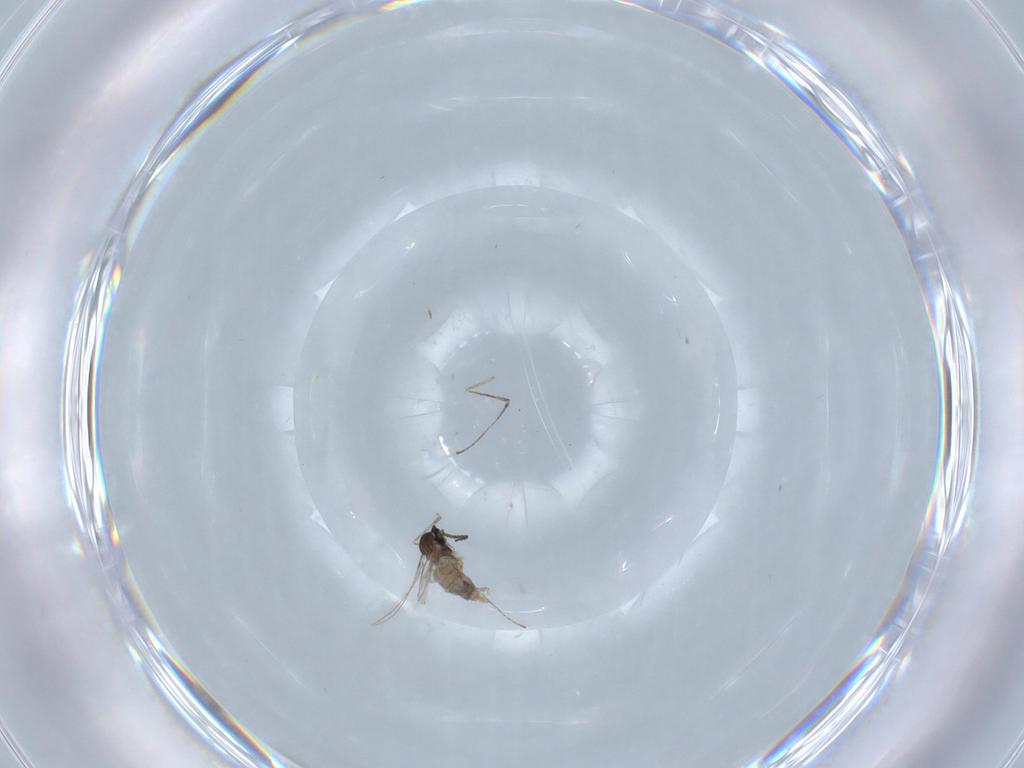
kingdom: Animalia
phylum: Arthropoda
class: Insecta
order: Diptera
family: Cecidomyiidae
